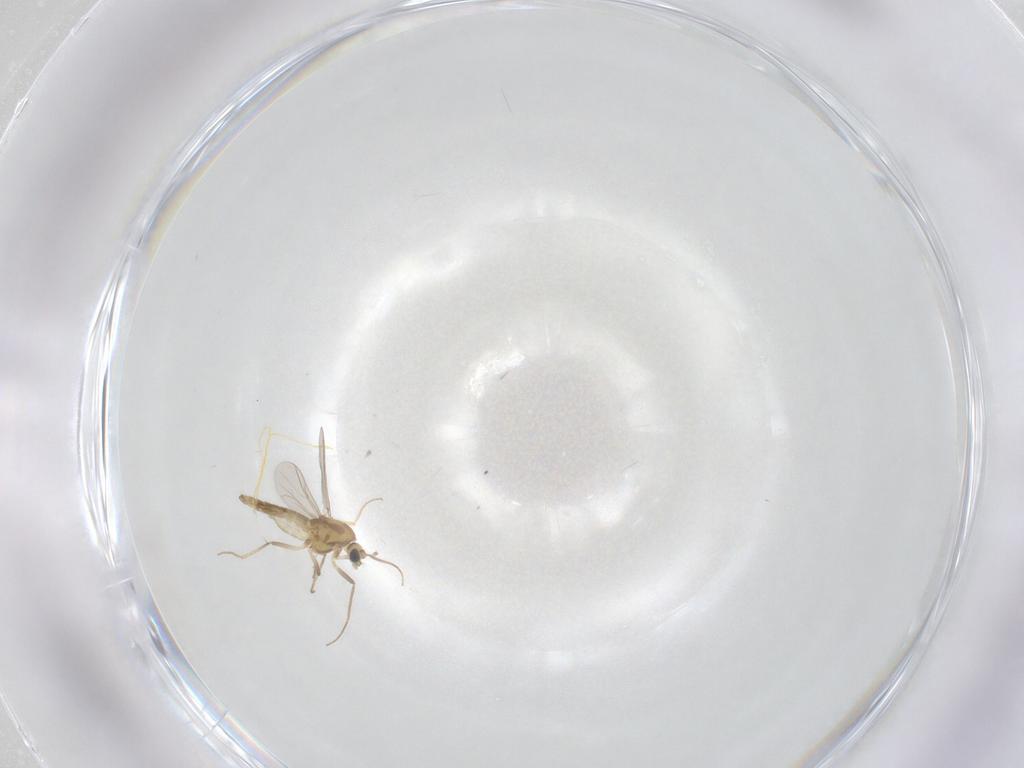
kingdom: Animalia
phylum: Arthropoda
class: Insecta
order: Diptera
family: Chironomidae
